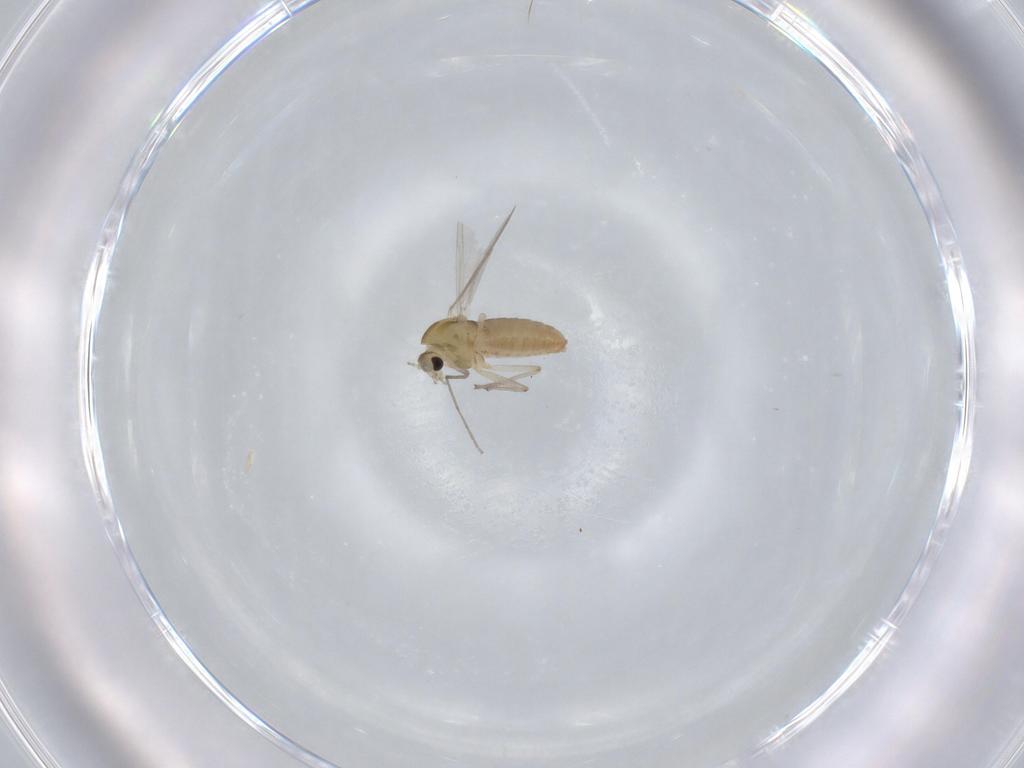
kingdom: Animalia
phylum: Arthropoda
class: Insecta
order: Diptera
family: Chironomidae
